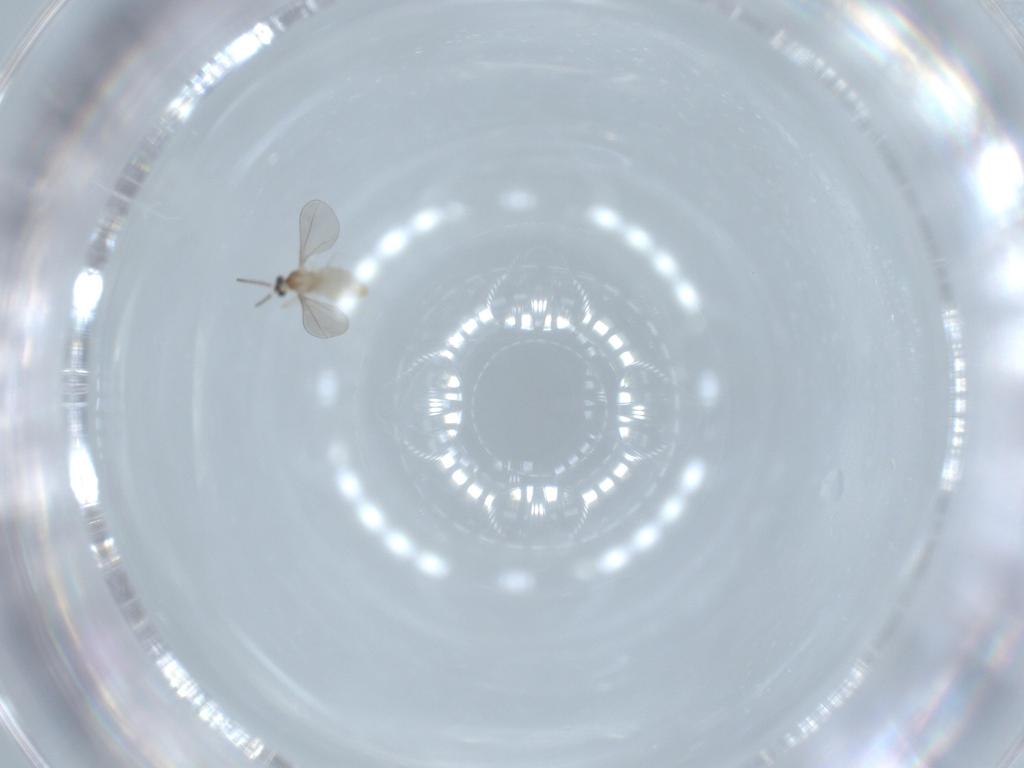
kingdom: Animalia
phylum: Arthropoda
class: Insecta
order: Diptera
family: Cecidomyiidae
